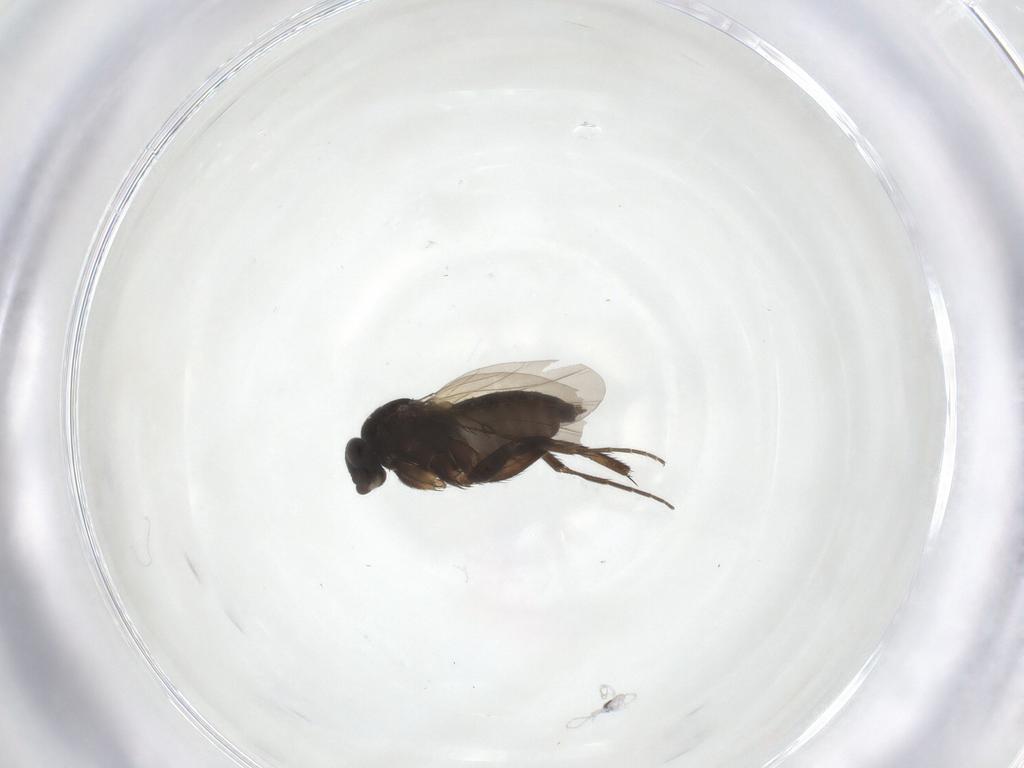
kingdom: Animalia
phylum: Arthropoda
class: Insecta
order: Diptera
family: Phoridae
